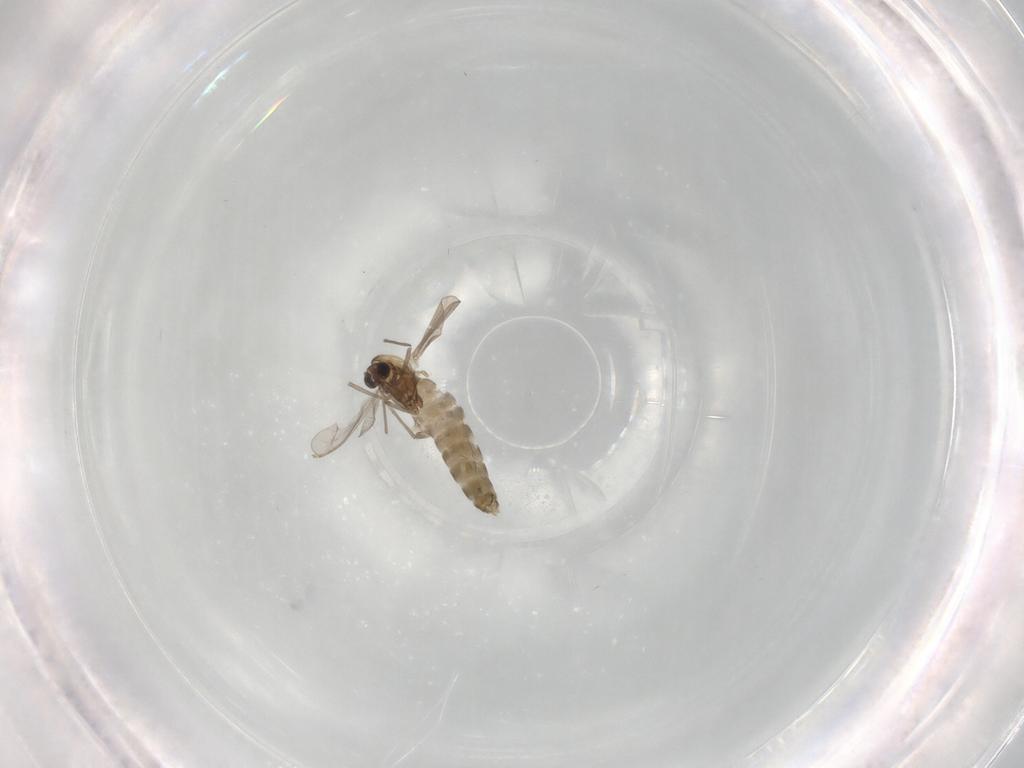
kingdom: Animalia
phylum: Arthropoda
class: Insecta
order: Diptera
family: Chironomidae
